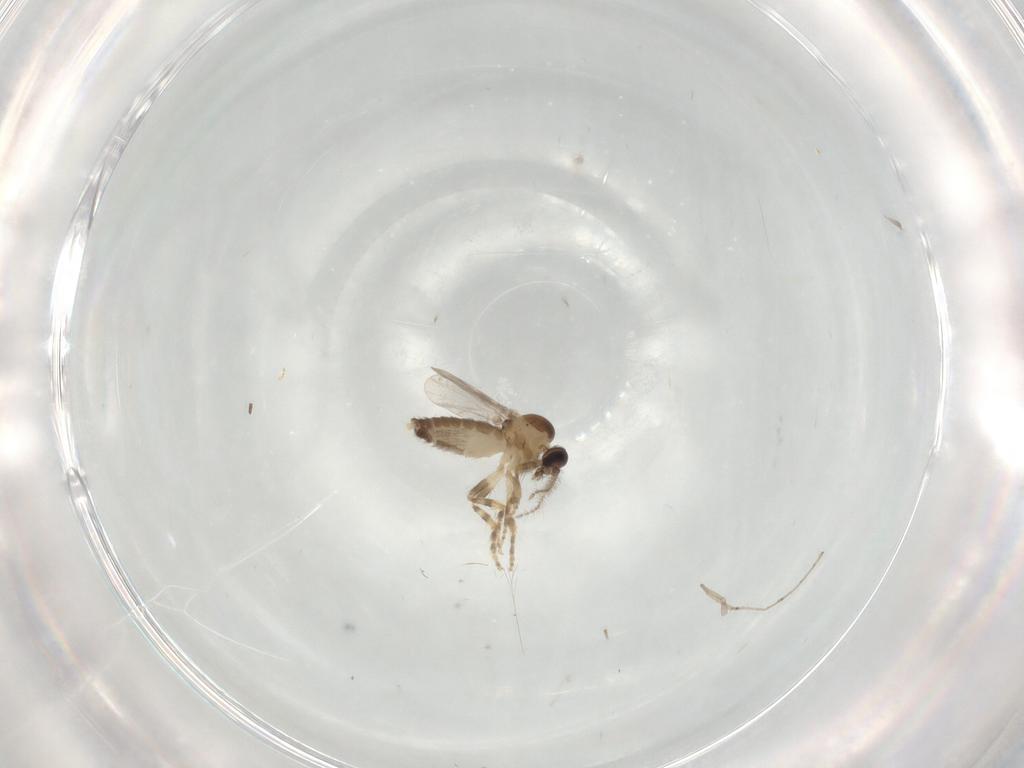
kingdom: Animalia
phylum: Arthropoda
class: Insecta
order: Diptera
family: Ceratopogonidae
